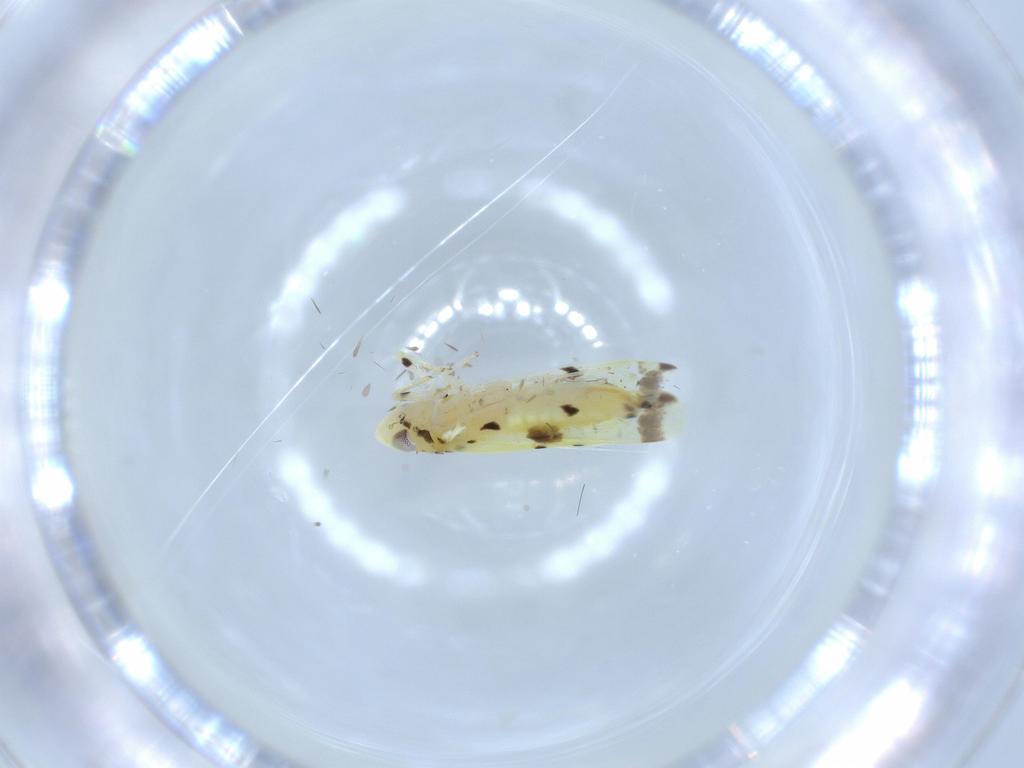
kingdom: Animalia
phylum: Arthropoda
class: Insecta
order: Hemiptera
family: Cicadellidae
